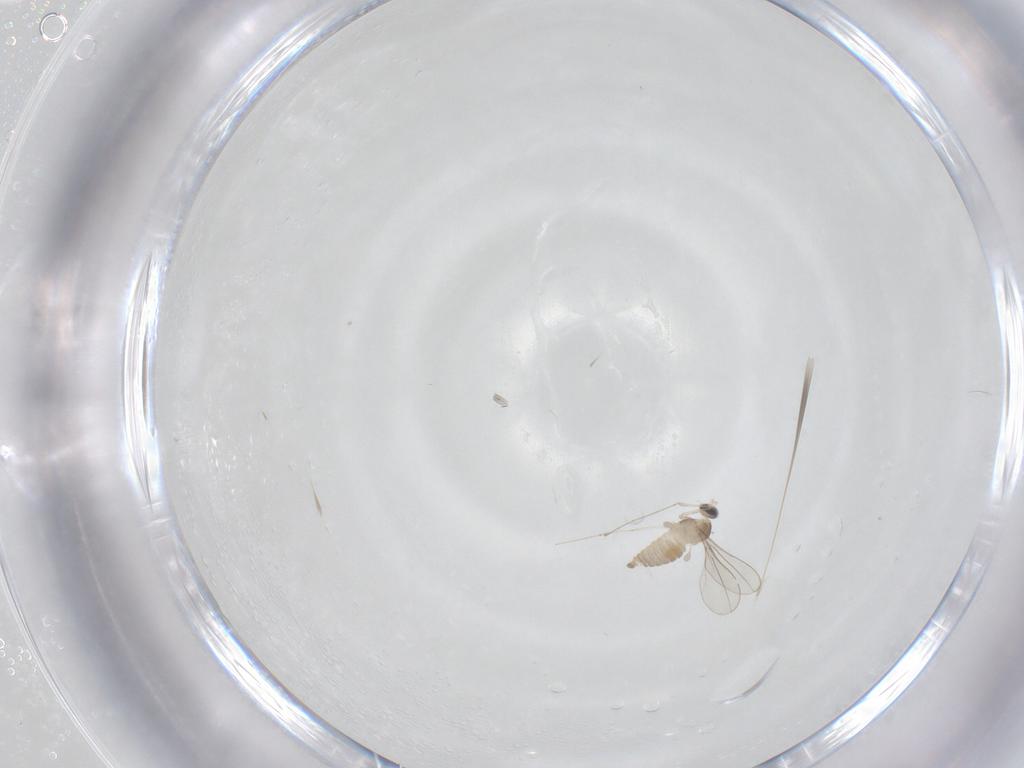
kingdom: Animalia
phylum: Arthropoda
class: Insecta
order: Diptera
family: Cecidomyiidae
